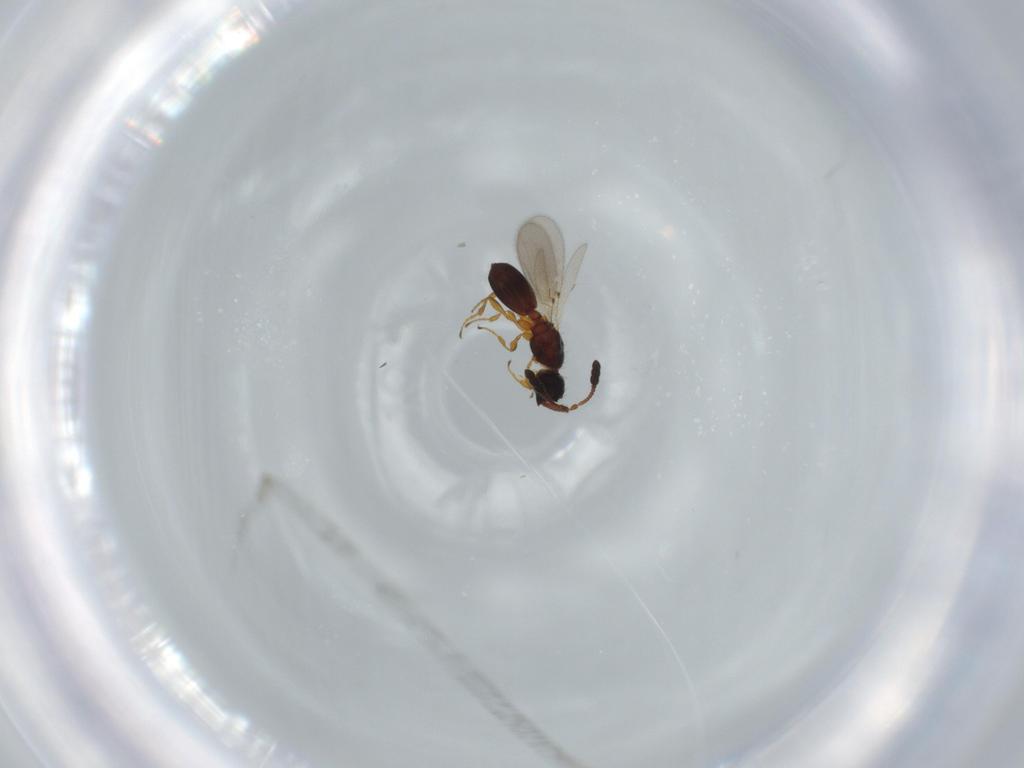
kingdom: Animalia
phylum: Arthropoda
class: Insecta
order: Hymenoptera
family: Diapriidae
